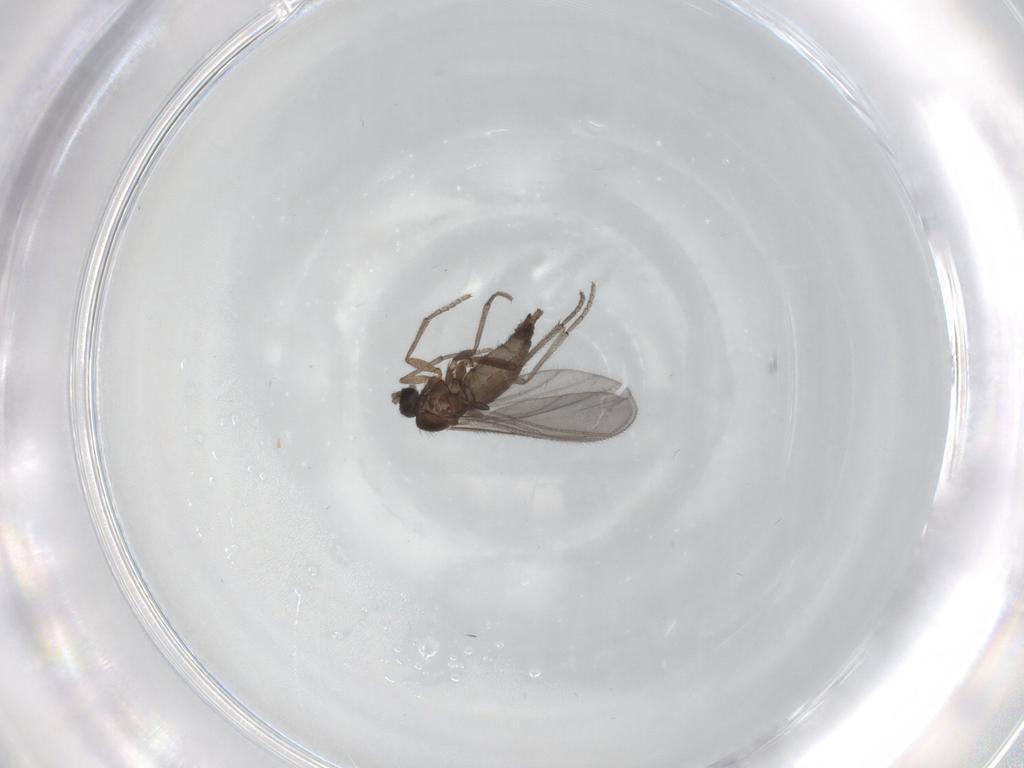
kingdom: Animalia
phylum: Arthropoda
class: Insecta
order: Diptera
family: Sciaridae
